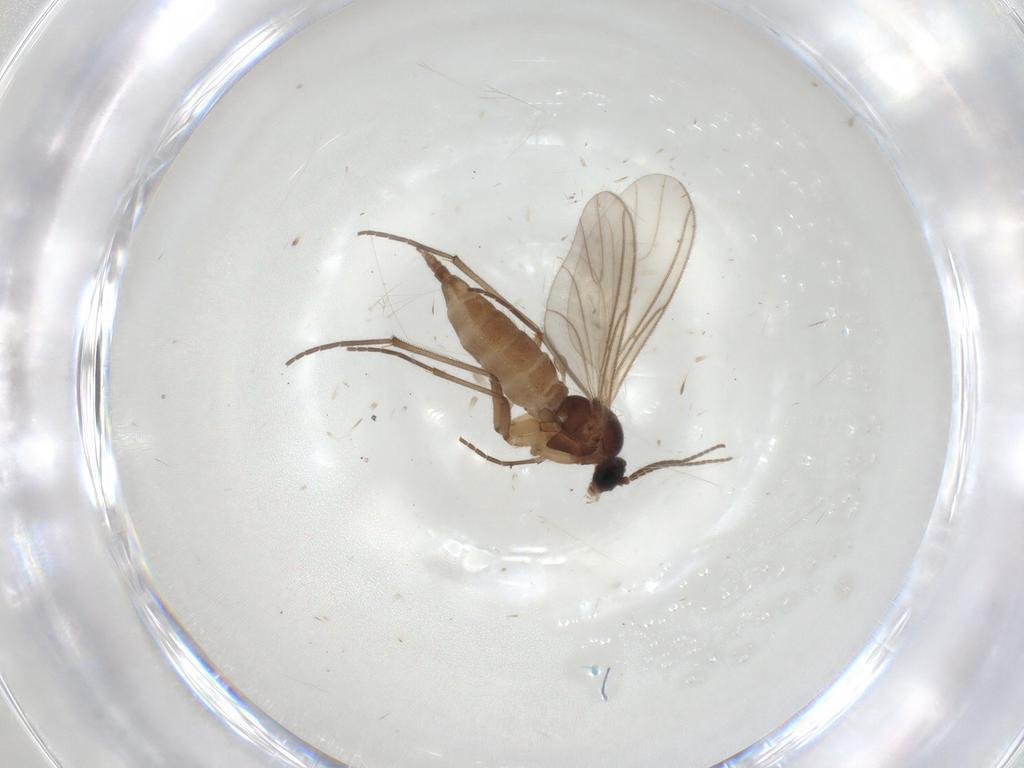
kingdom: Animalia
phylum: Arthropoda
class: Insecta
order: Diptera
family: Sciaridae
